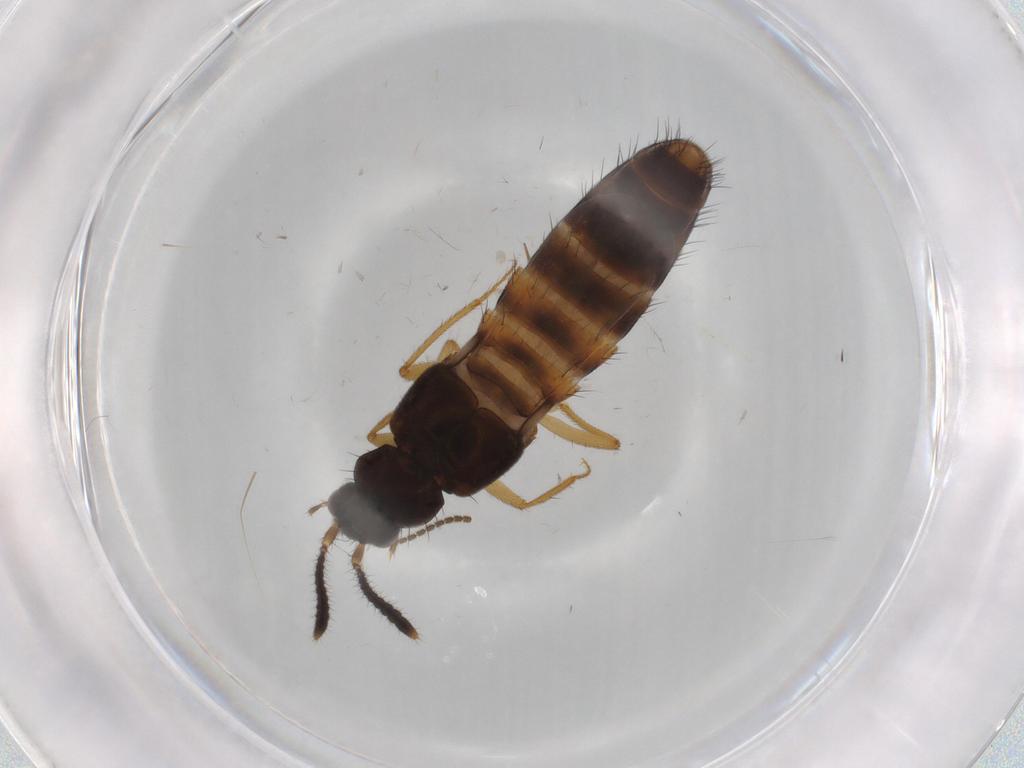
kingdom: Animalia
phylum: Arthropoda
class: Insecta
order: Coleoptera
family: Staphylinidae
